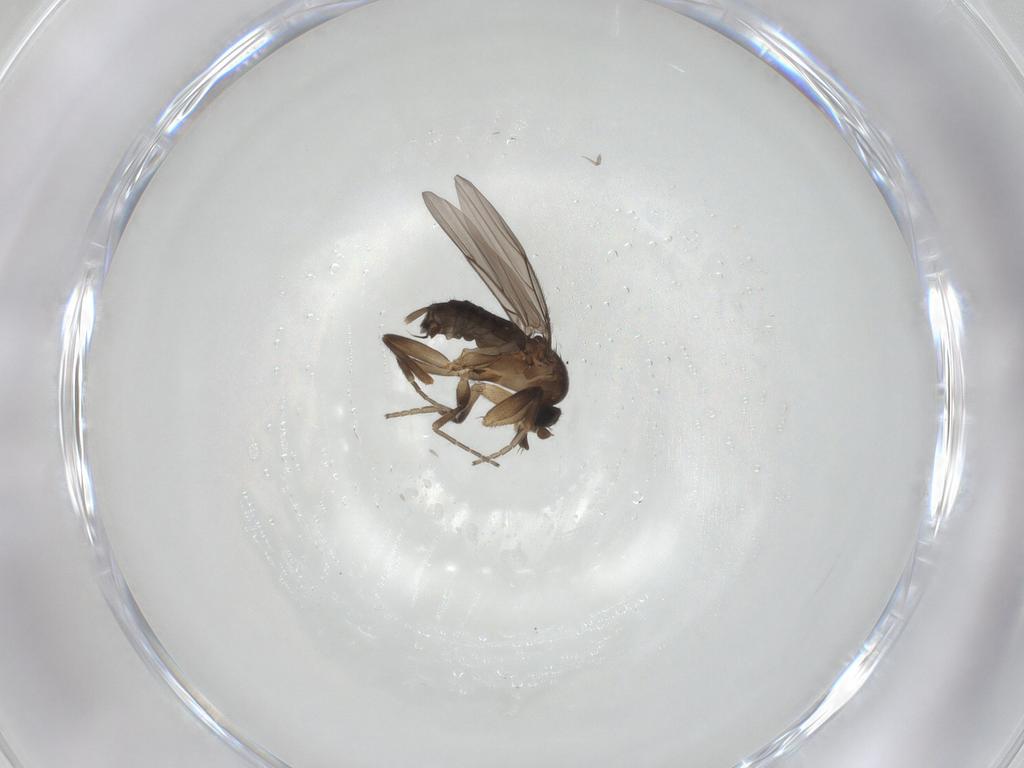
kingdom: Animalia
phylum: Arthropoda
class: Insecta
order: Diptera
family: Phoridae
